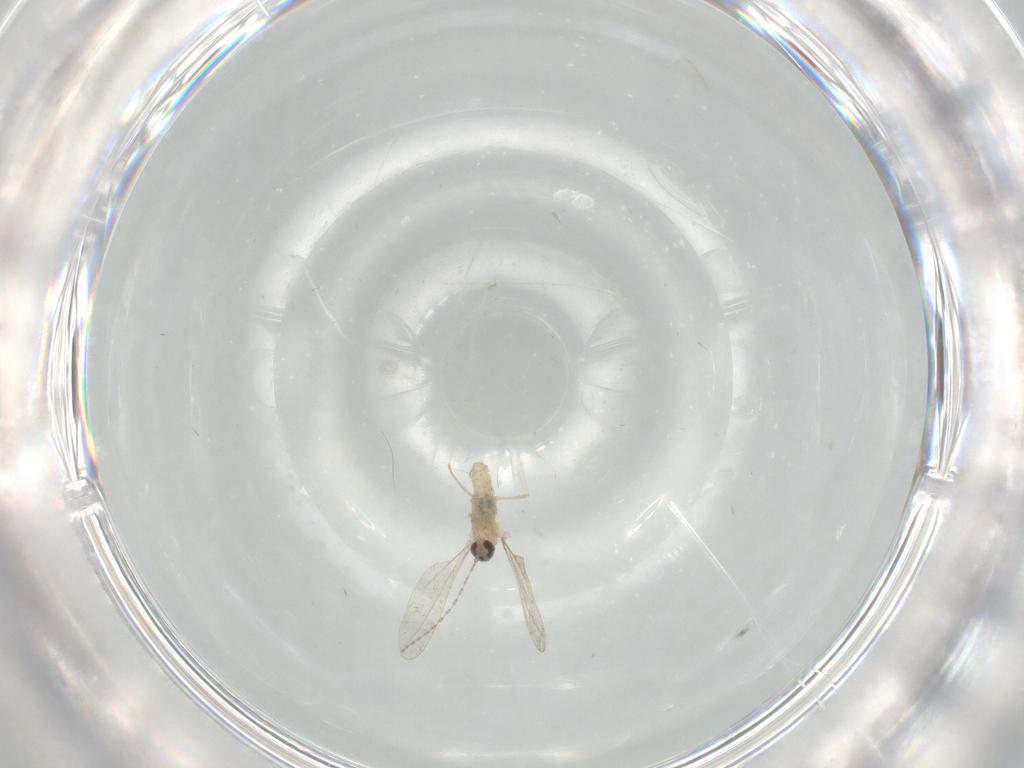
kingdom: Animalia
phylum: Arthropoda
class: Insecta
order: Diptera
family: Cecidomyiidae
